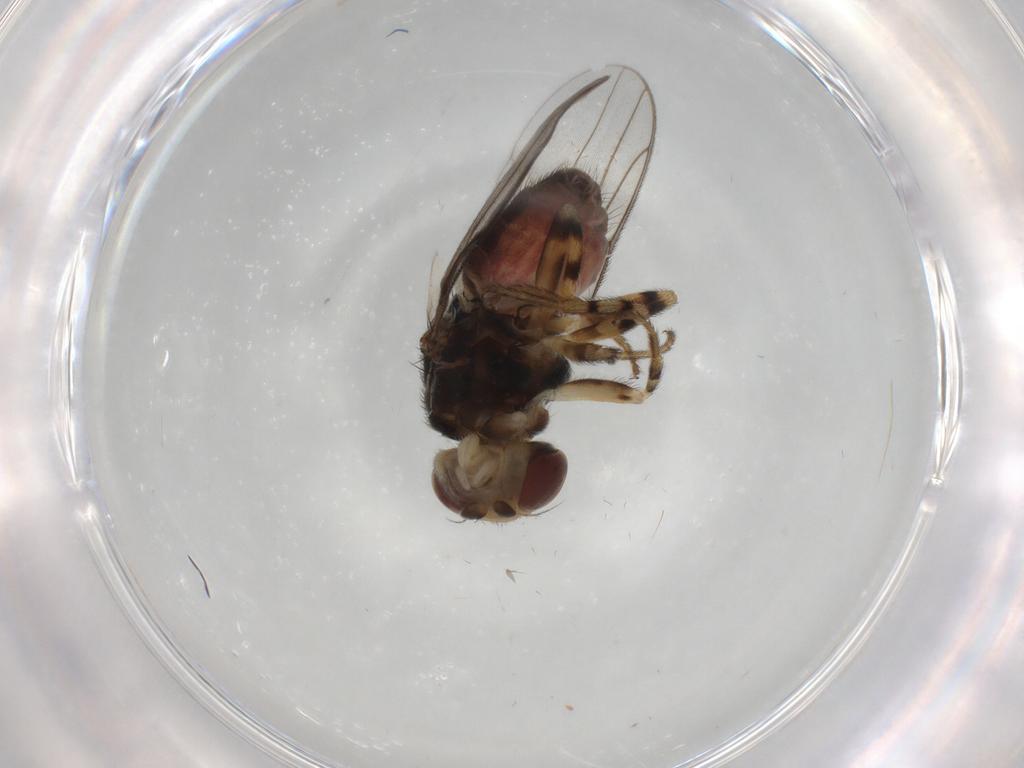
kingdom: Animalia
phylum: Arthropoda
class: Insecta
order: Diptera
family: Chloropidae
